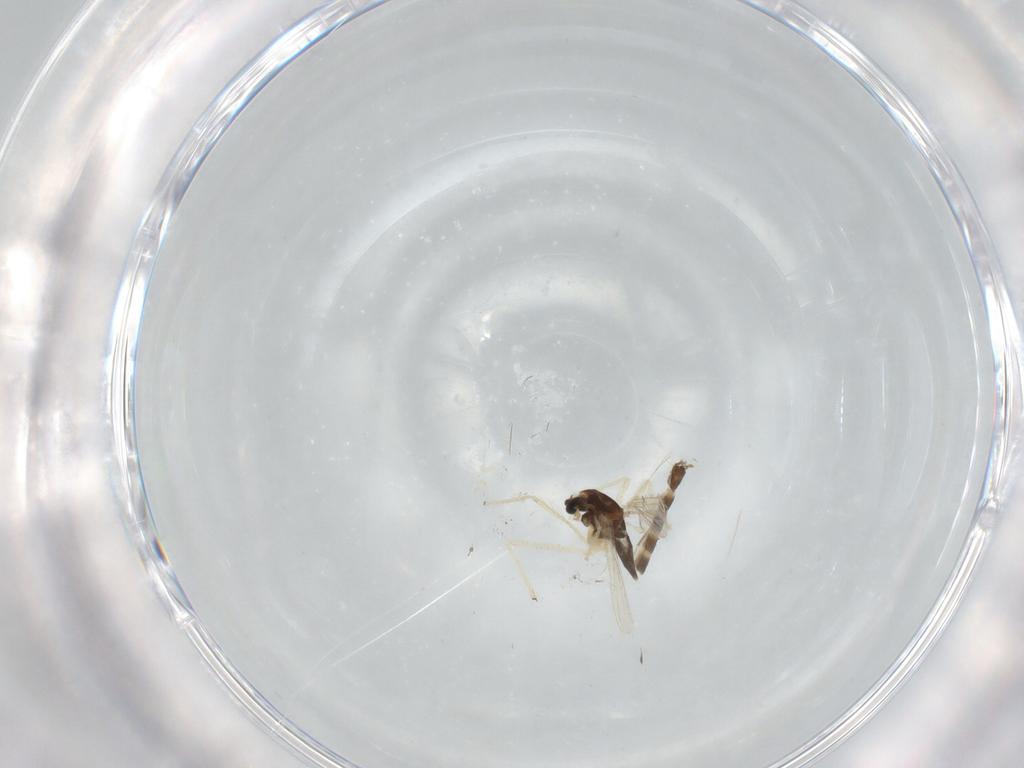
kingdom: Animalia
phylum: Arthropoda
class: Insecta
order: Diptera
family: Chironomidae
